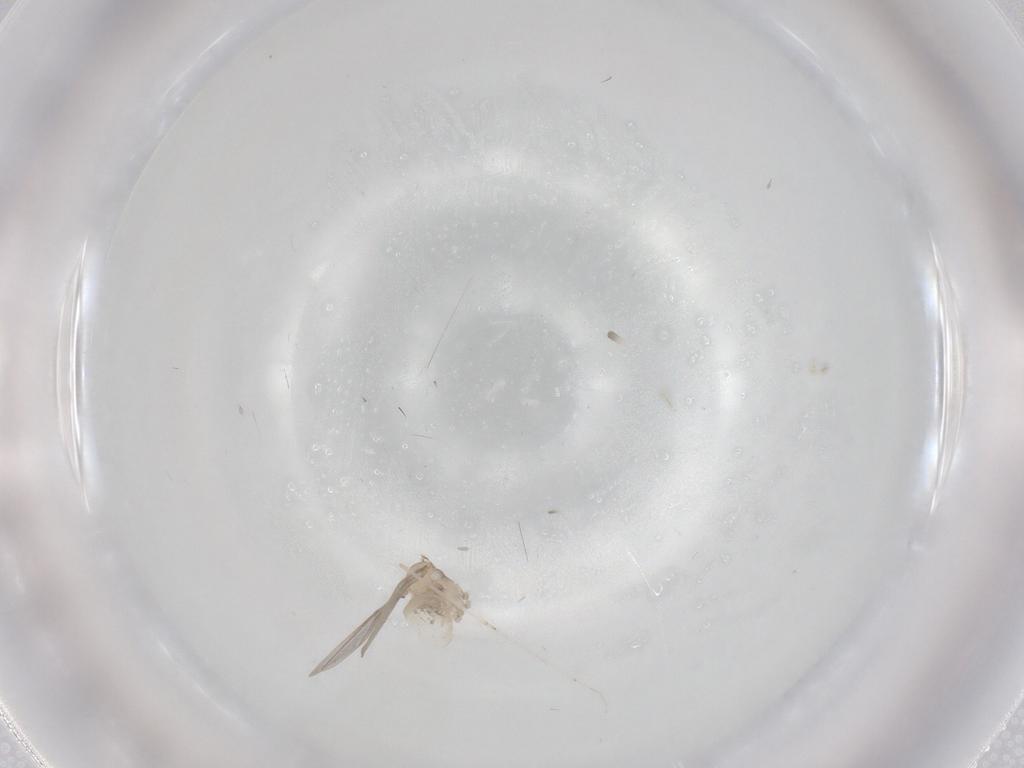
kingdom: Animalia
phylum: Arthropoda
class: Insecta
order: Diptera
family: Cecidomyiidae
